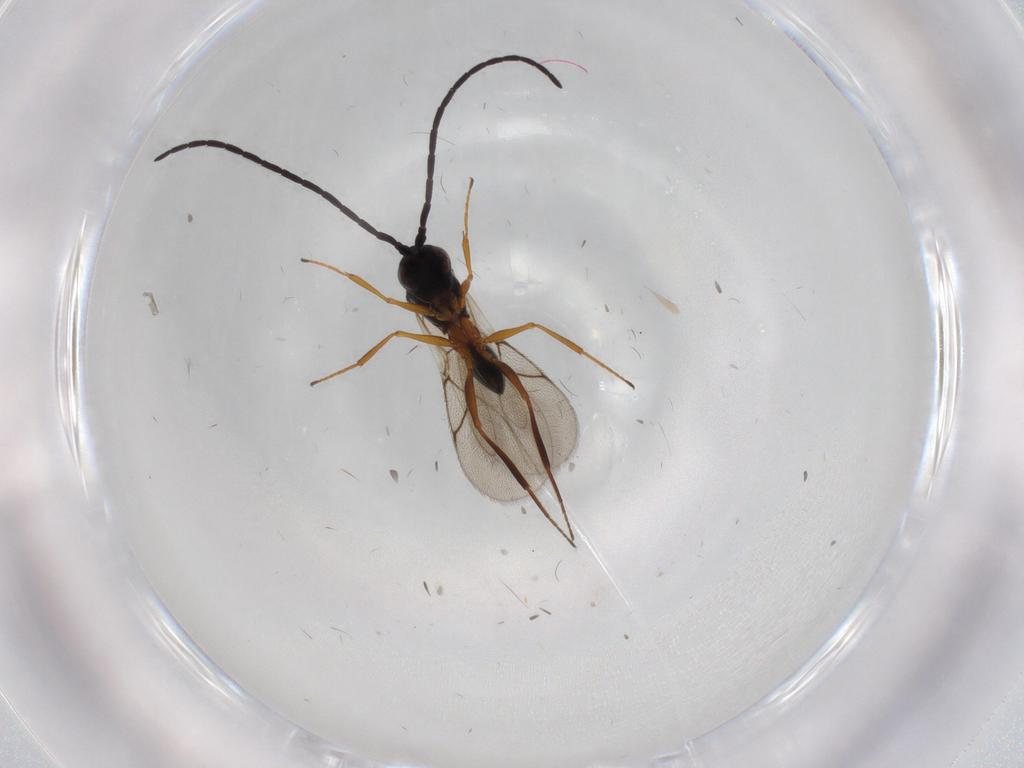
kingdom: Animalia
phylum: Arthropoda
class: Insecta
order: Hymenoptera
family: Figitidae
